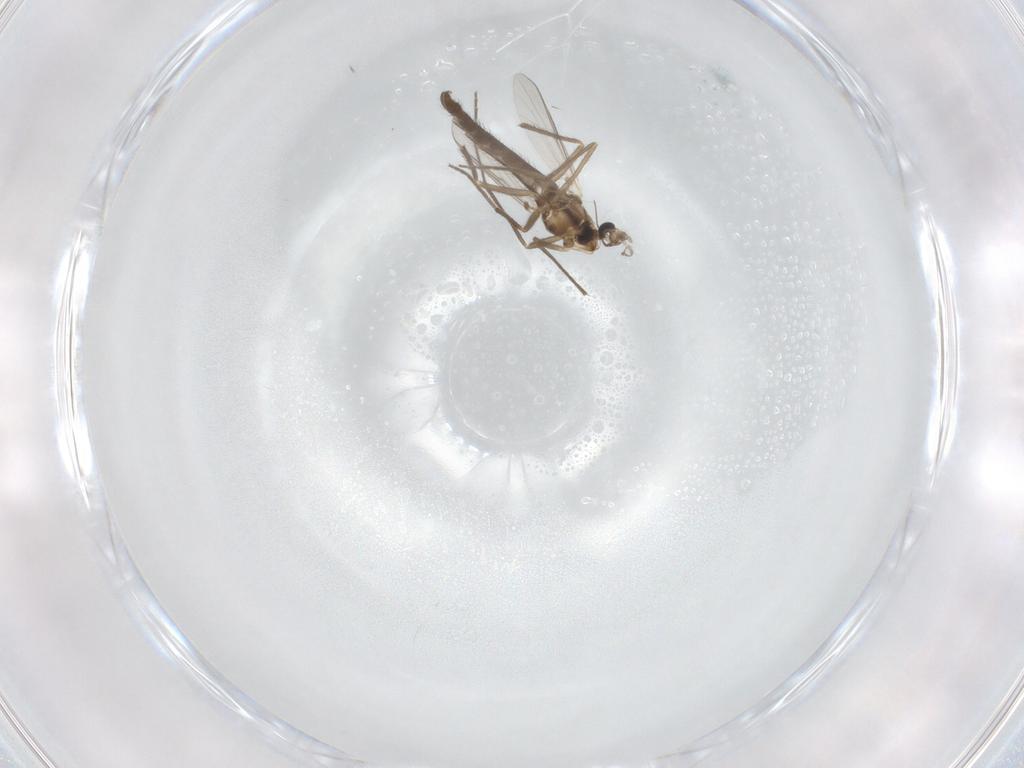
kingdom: Animalia
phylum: Arthropoda
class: Insecta
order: Diptera
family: Chironomidae
